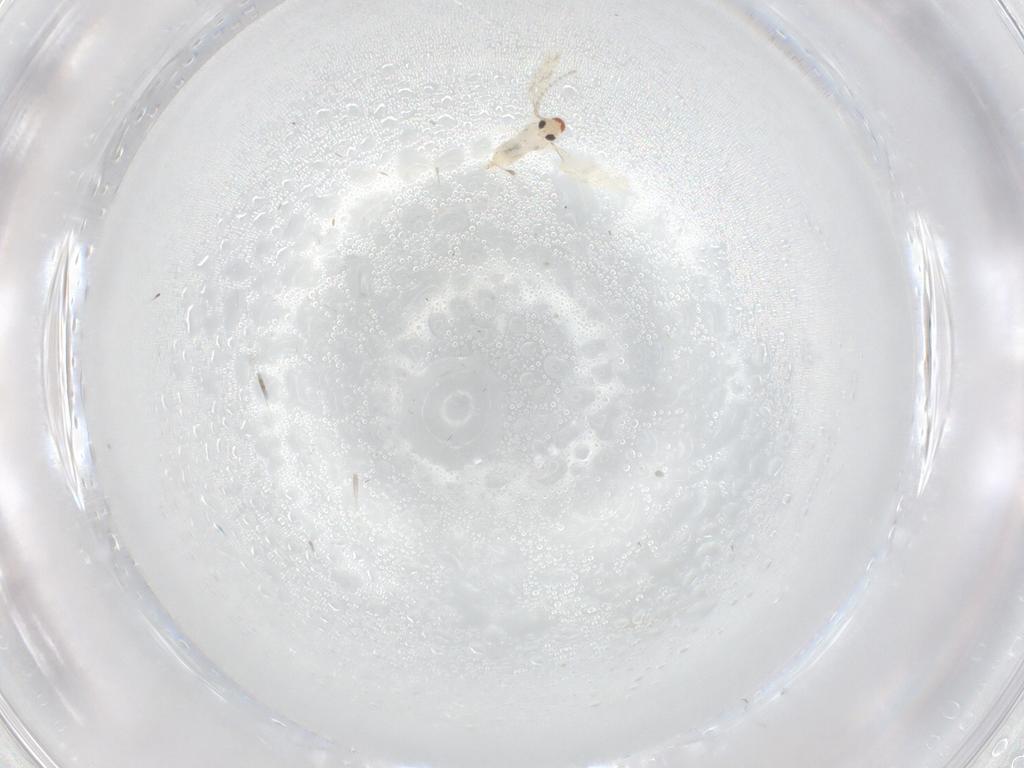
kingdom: Animalia
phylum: Arthropoda
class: Insecta
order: Diptera
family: Cecidomyiidae
